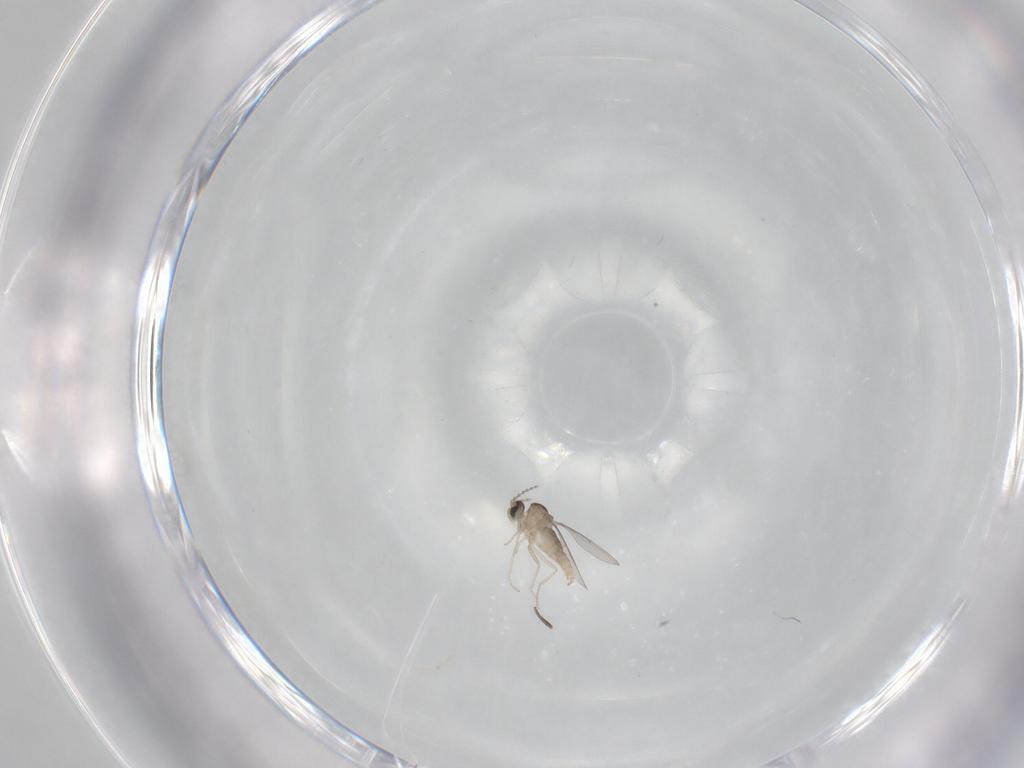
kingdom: Animalia
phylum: Arthropoda
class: Insecta
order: Diptera
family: Cecidomyiidae
